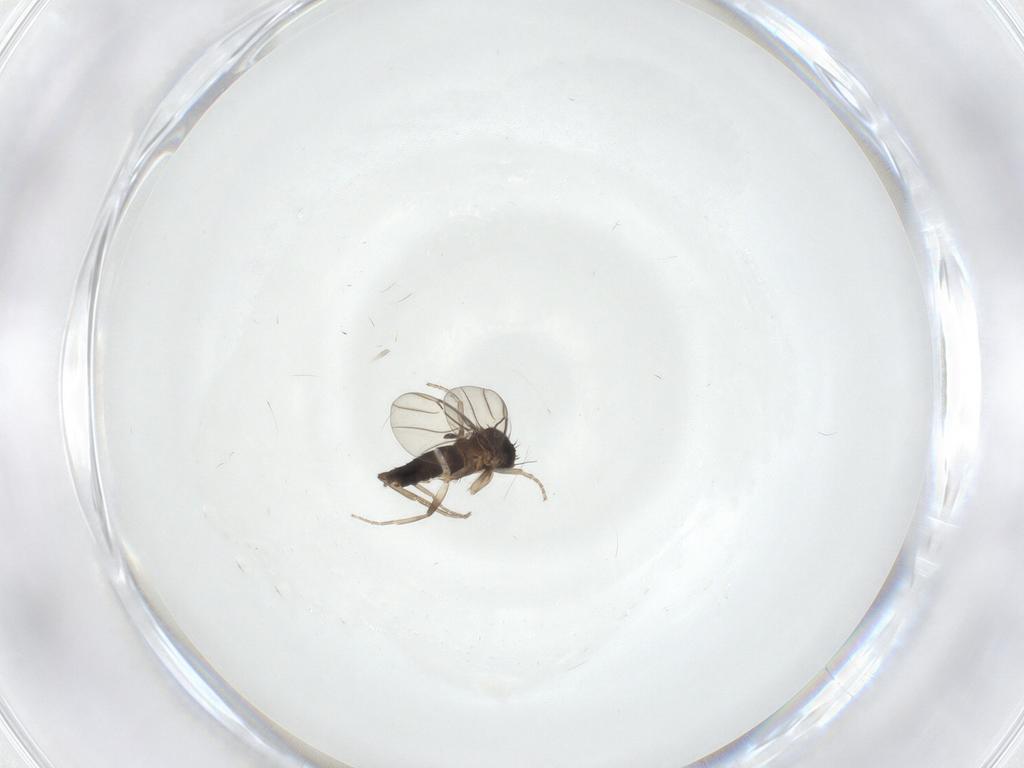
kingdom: Animalia
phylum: Arthropoda
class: Insecta
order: Diptera
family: Phoridae
